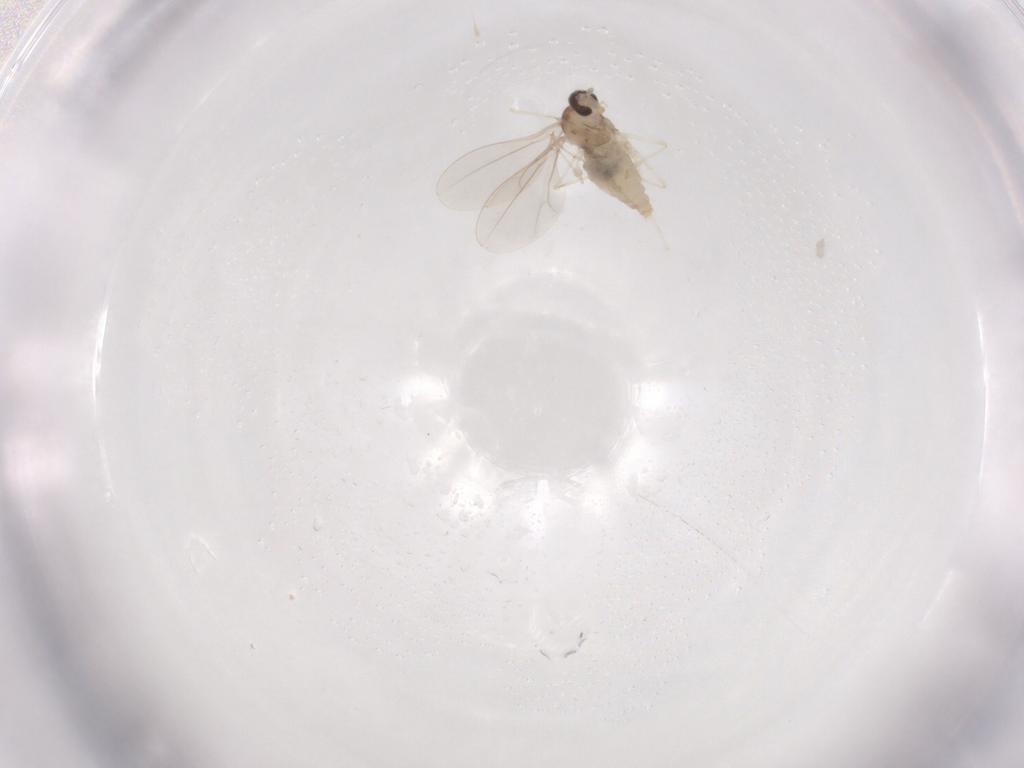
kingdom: Animalia
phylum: Arthropoda
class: Insecta
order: Diptera
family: Cecidomyiidae
